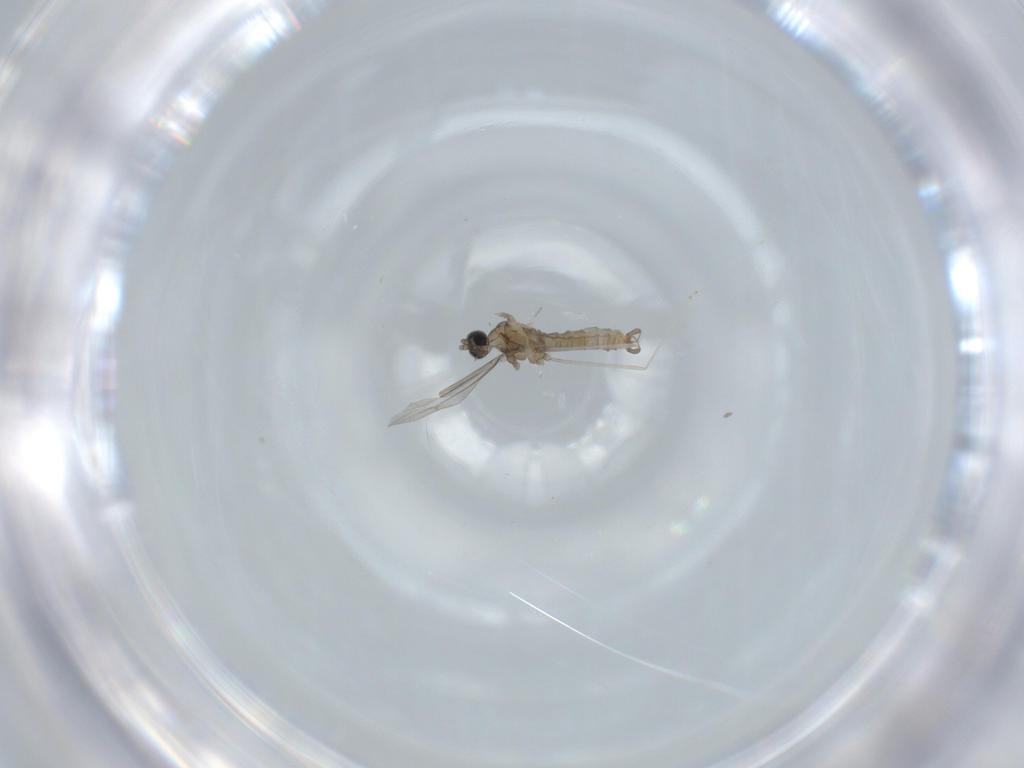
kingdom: Animalia
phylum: Arthropoda
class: Insecta
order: Diptera
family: Cecidomyiidae
